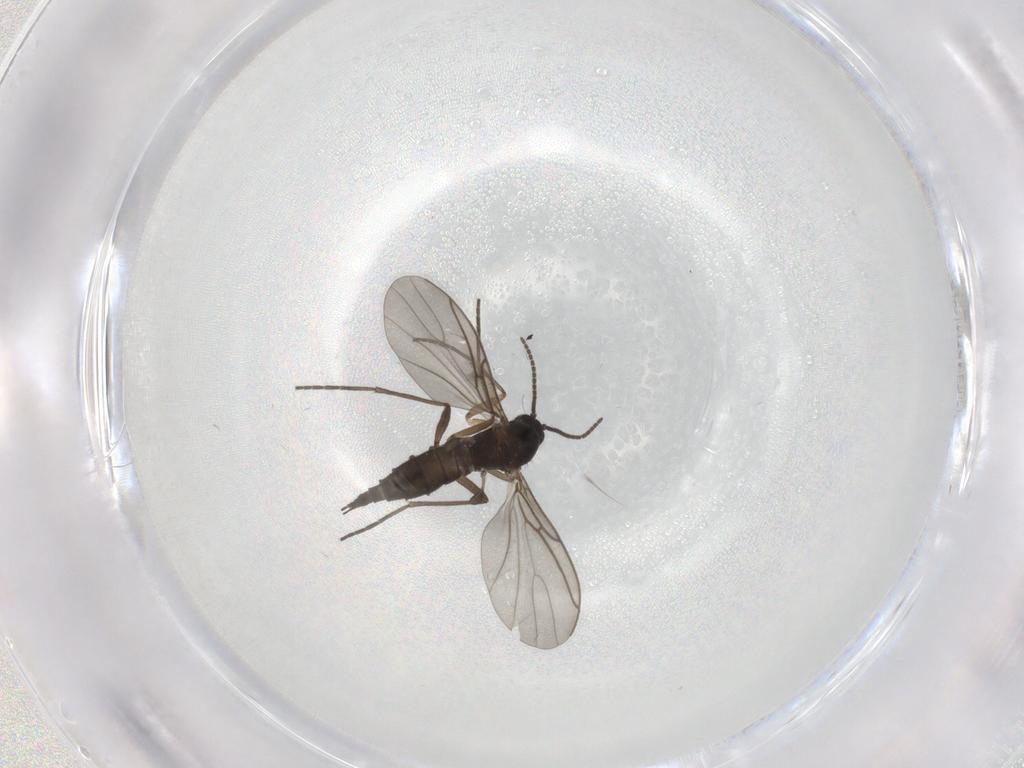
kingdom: Animalia
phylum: Arthropoda
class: Insecta
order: Diptera
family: Sciaridae
